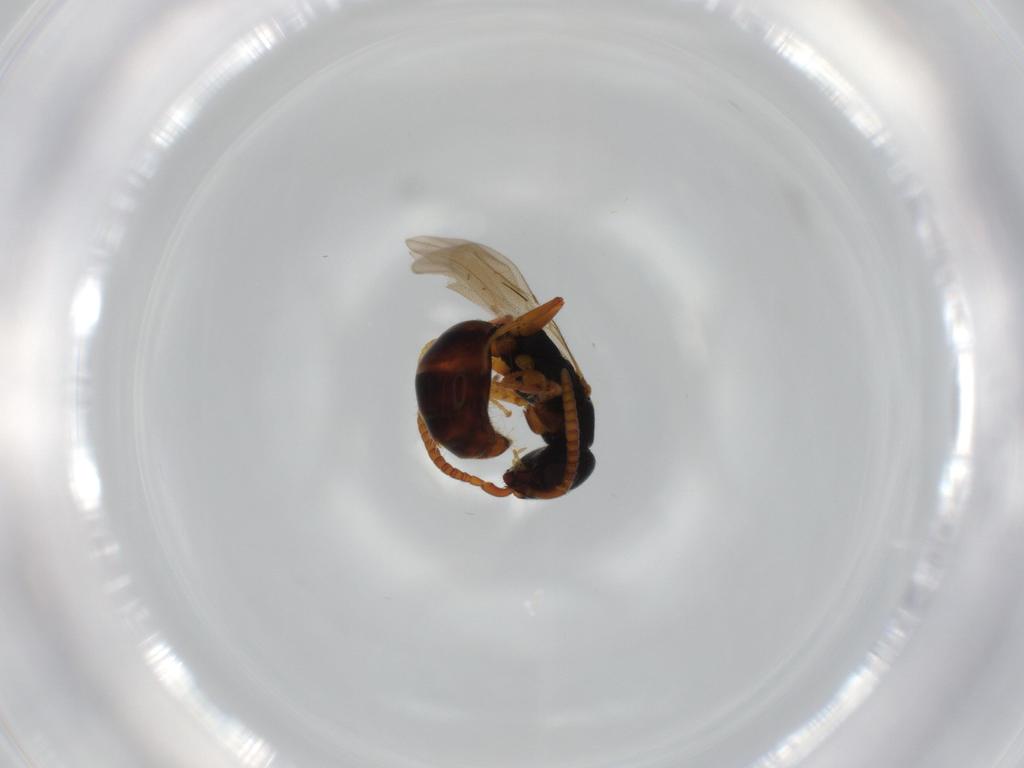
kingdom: Animalia
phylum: Arthropoda
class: Insecta
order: Hymenoptera
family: Bethylidae
